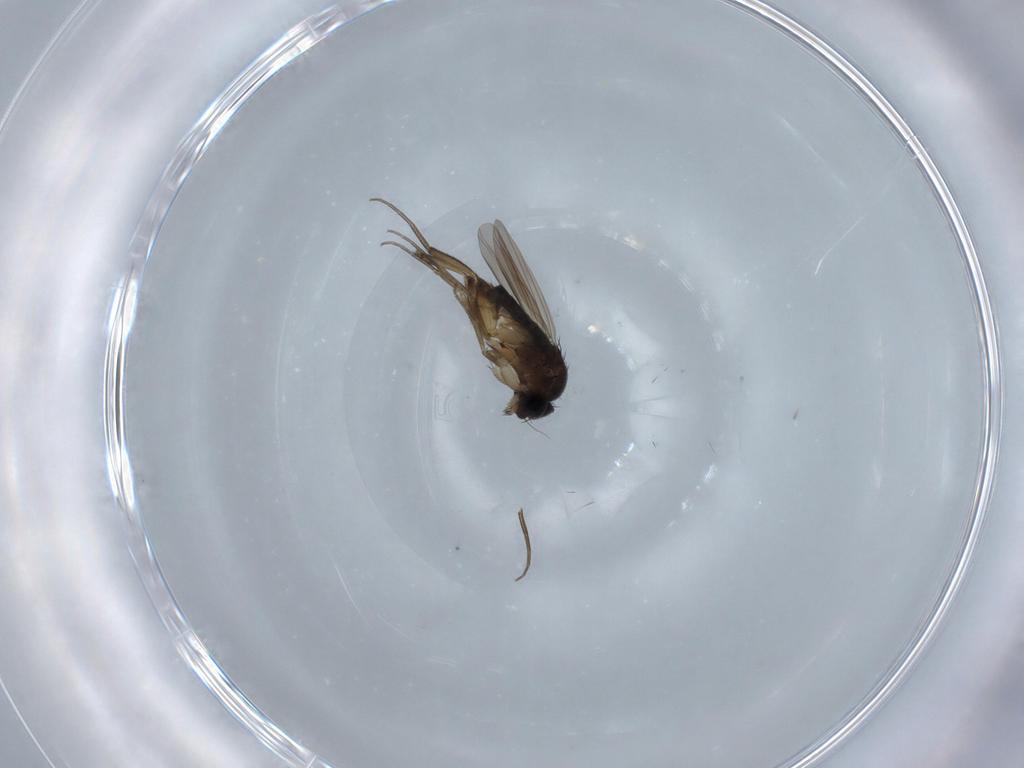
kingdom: Animalia
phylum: Arthropoda
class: Insecta
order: Diptera
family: Phoridae
